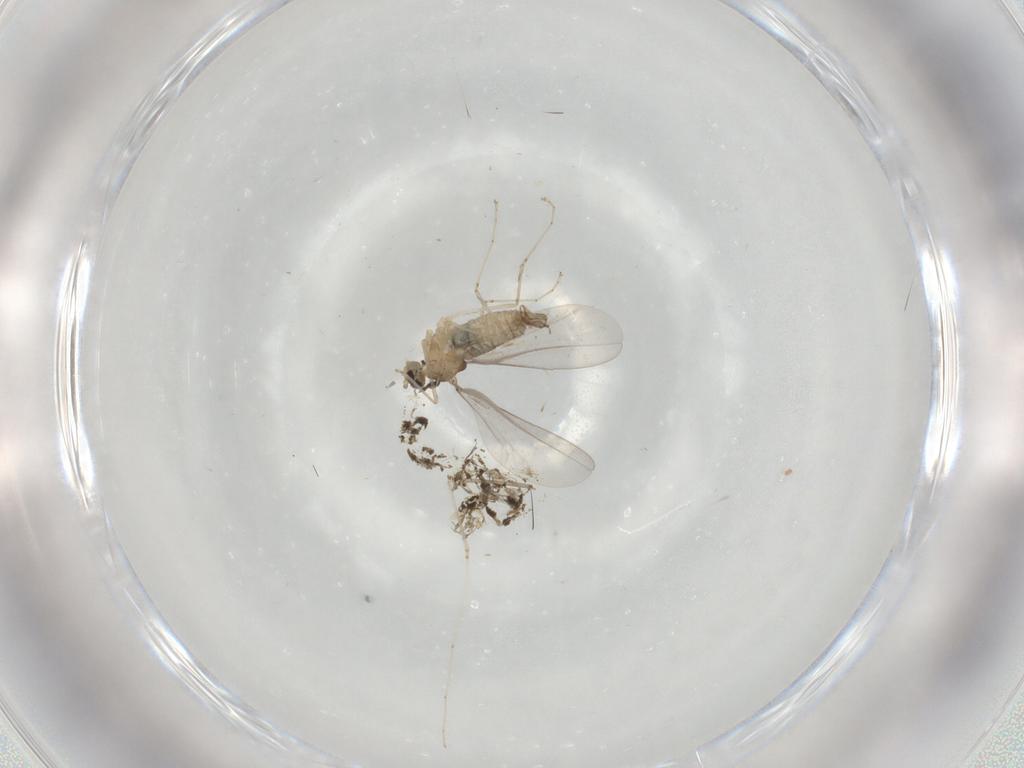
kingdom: Animalia
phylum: Arthropoda
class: Insecta
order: Diptera
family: Cecidomyiidae
